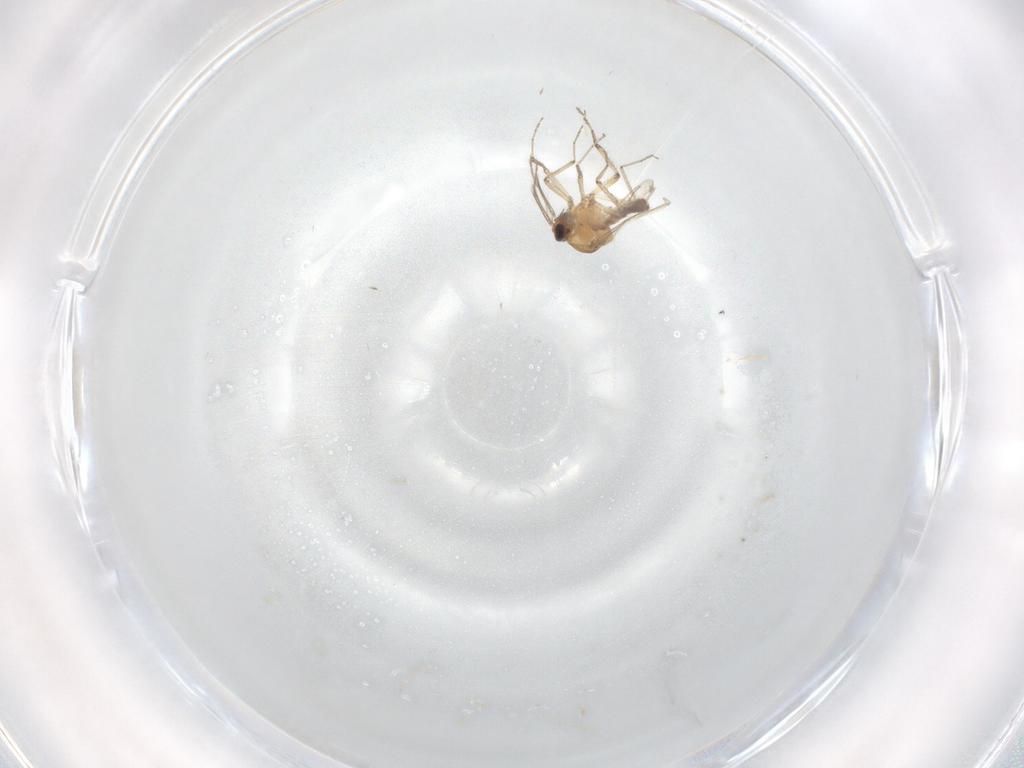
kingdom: Animalia
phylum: Arthropoda
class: Insecta
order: Diptera
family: Ceratopogonidae
